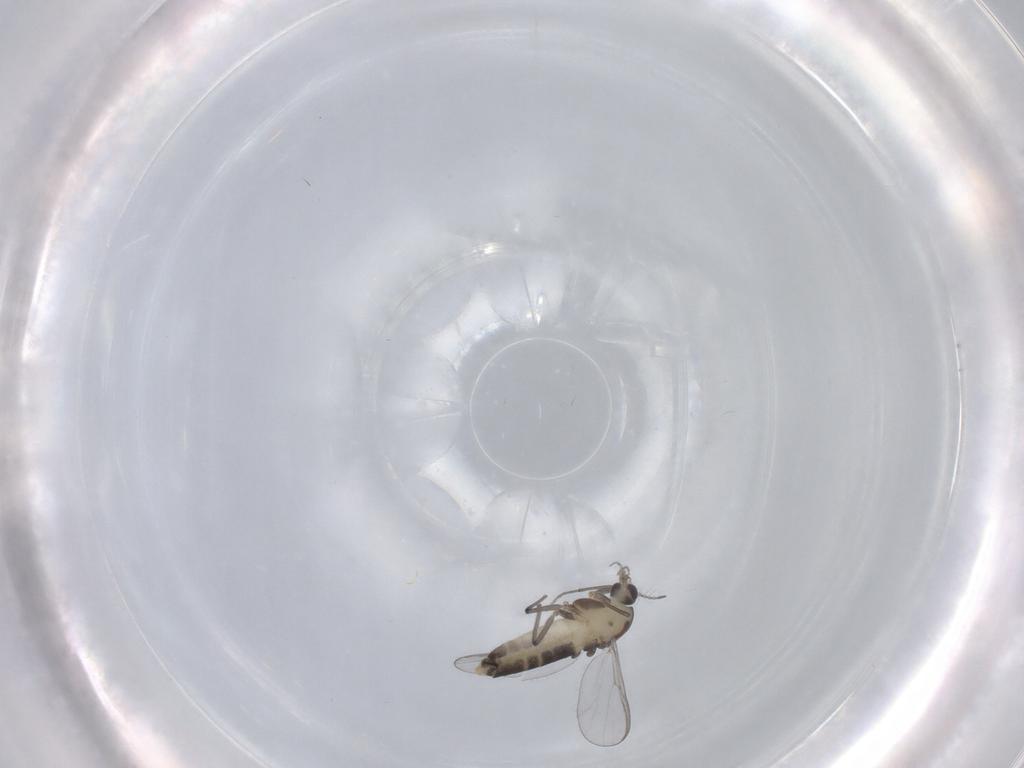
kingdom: Animalia
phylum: Arthropoda
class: Insecta
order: Diptera
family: Chironomidae
